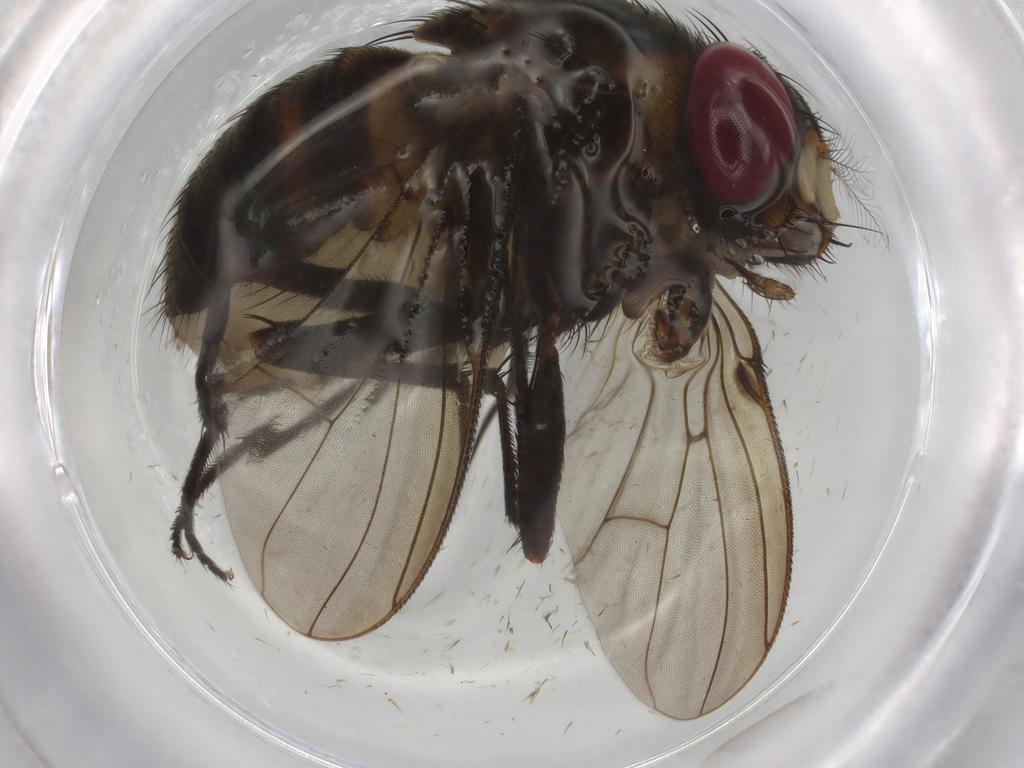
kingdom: Animalia
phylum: Arthropoda
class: Insecta
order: Diptera
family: Chloropidae
